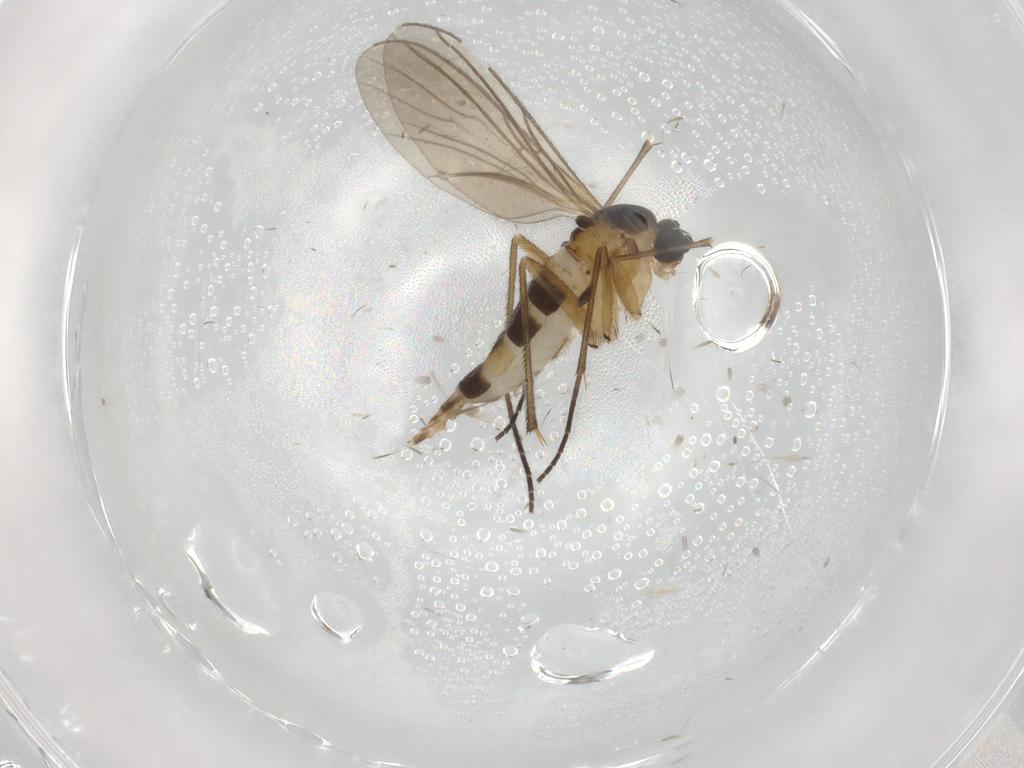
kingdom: Animalia
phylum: Arthropoda
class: Insecta
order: Diptera
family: Sciaridae
